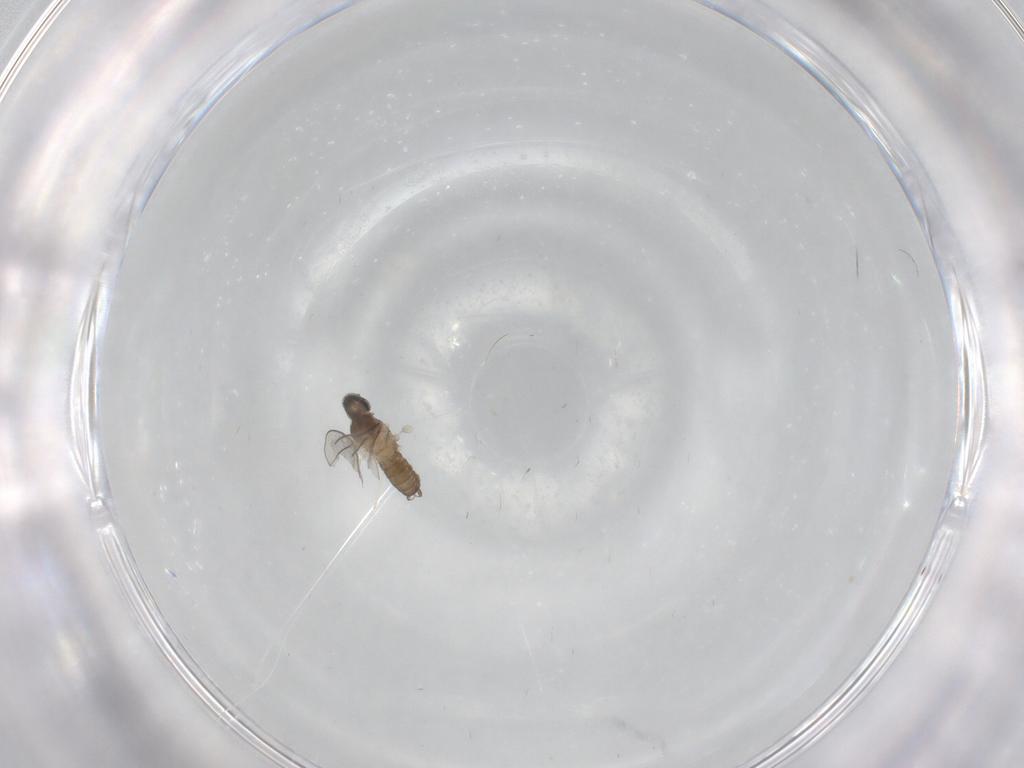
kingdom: Animalia
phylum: Arthropoda
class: Insecta
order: Diptera
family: Cecidomyiidae
